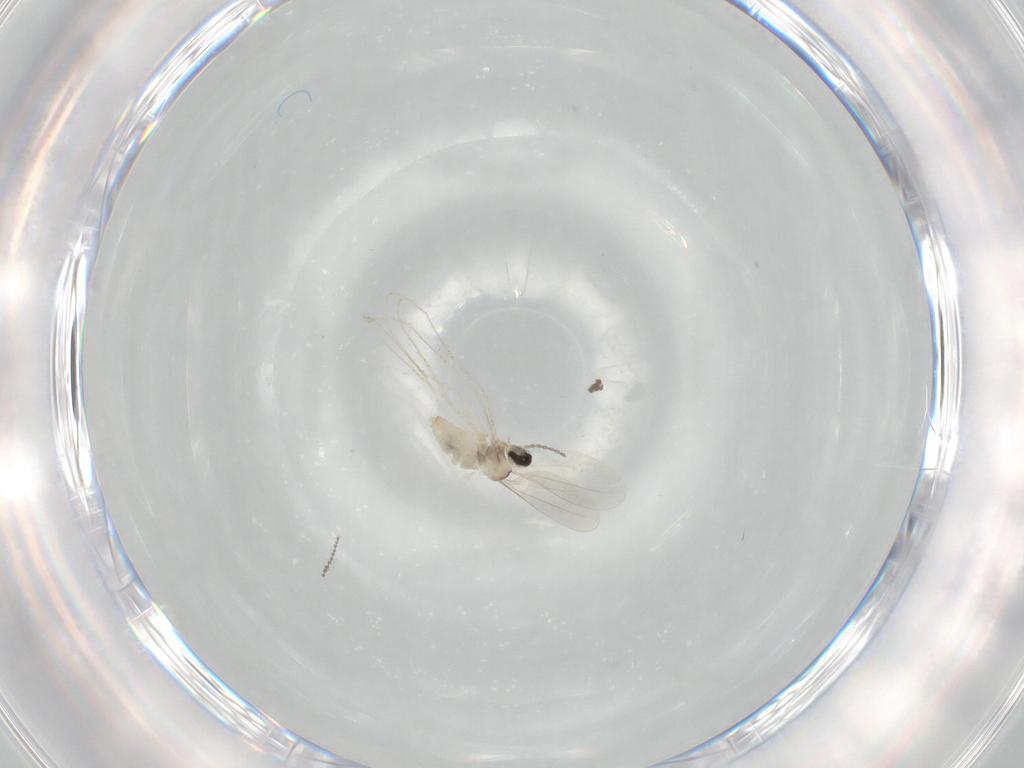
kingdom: Animalia
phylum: Arthropoda
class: Insecta
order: Diptera
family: Cecidomyiidae
